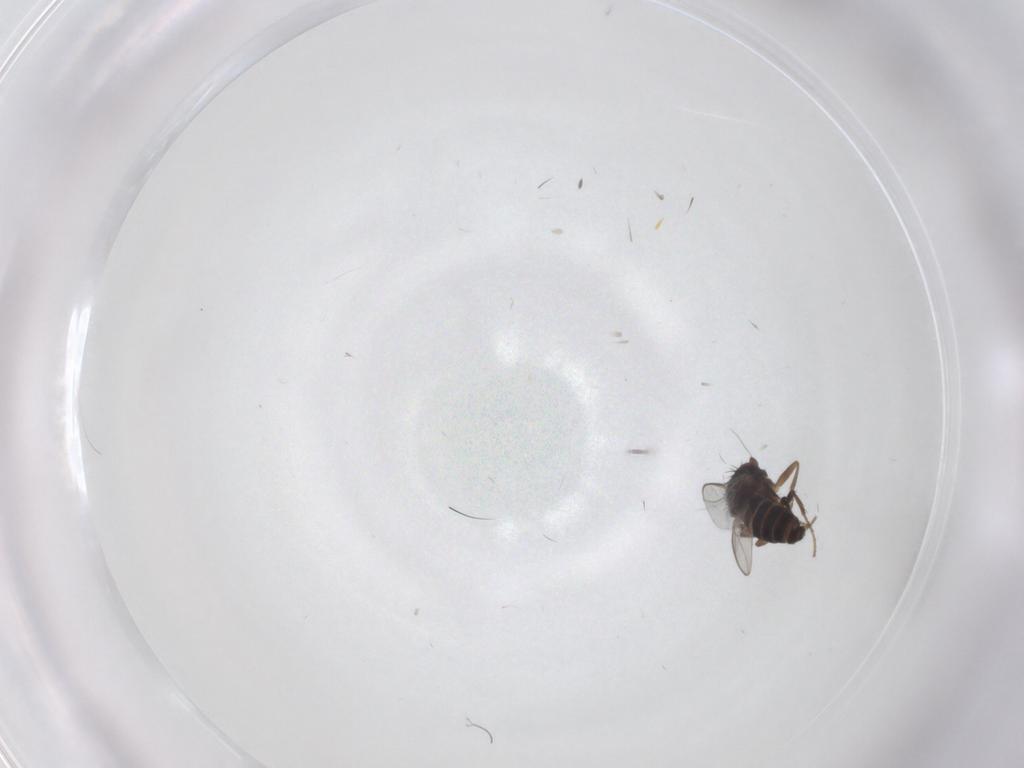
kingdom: Animalia
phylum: Arthropoda
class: Insecta
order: Diptera
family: Sphaeroceridae
